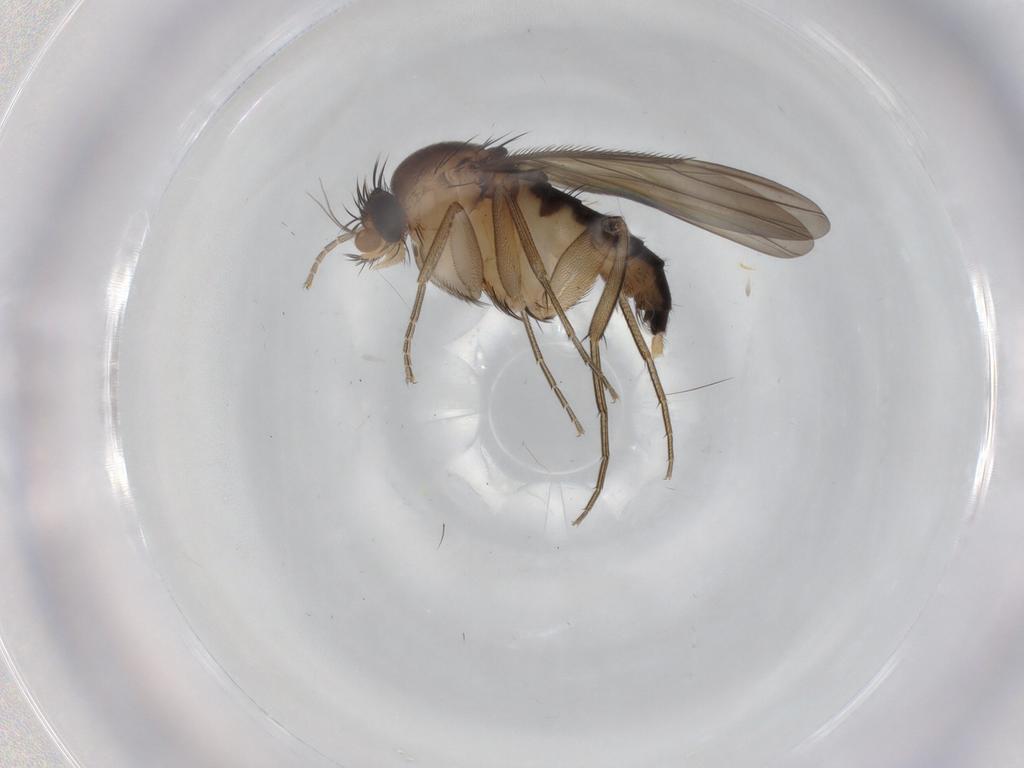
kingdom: Animalia
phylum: Arthropoda
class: Insecta
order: Diptera
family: Phoridae
